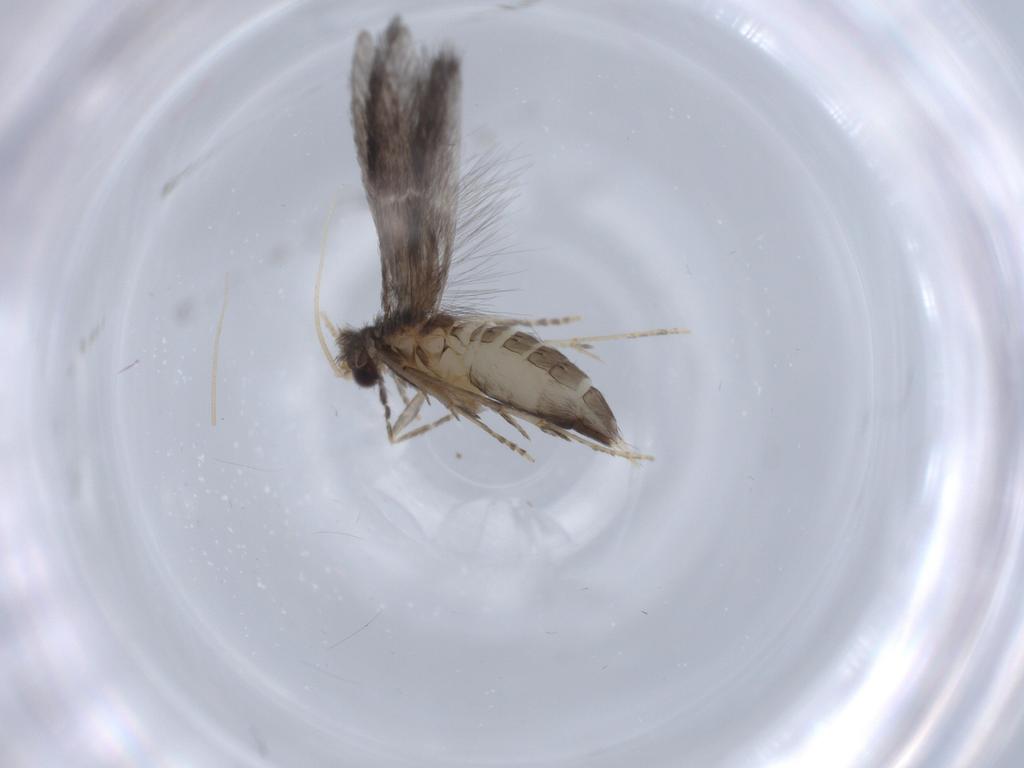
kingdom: Animalia
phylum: Arthropoda
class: Insecta
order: Trichoptera
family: Hydroptilidae
